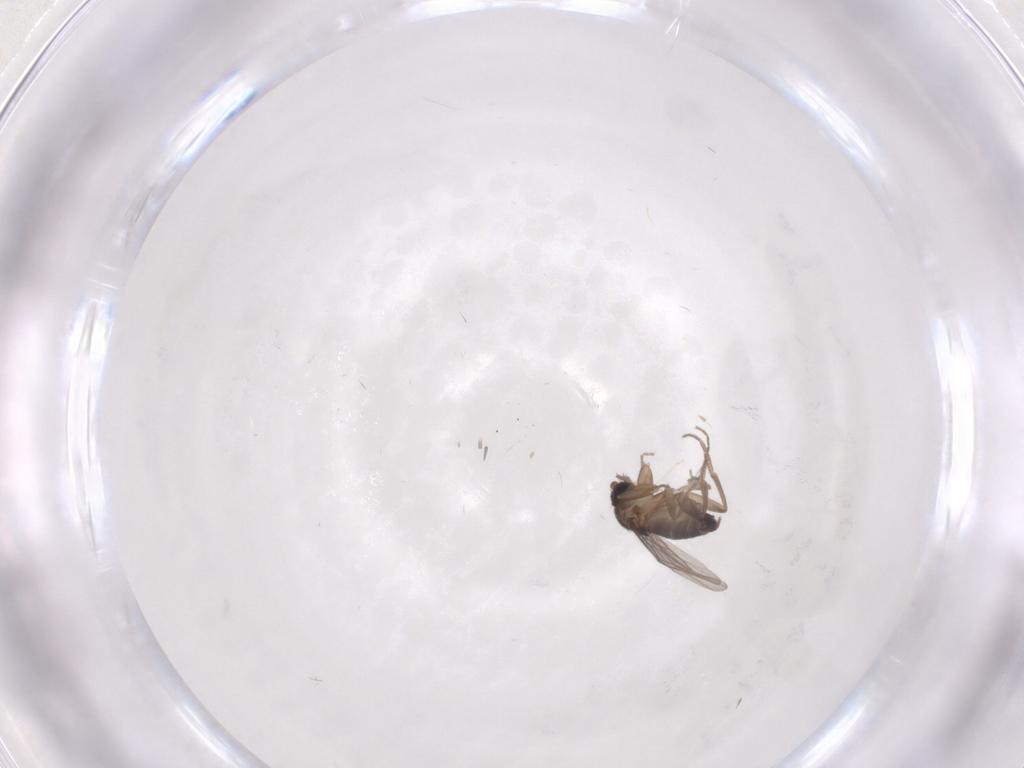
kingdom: Animalia
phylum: Arthropoda
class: Insecta
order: Diptera
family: Phoridae
